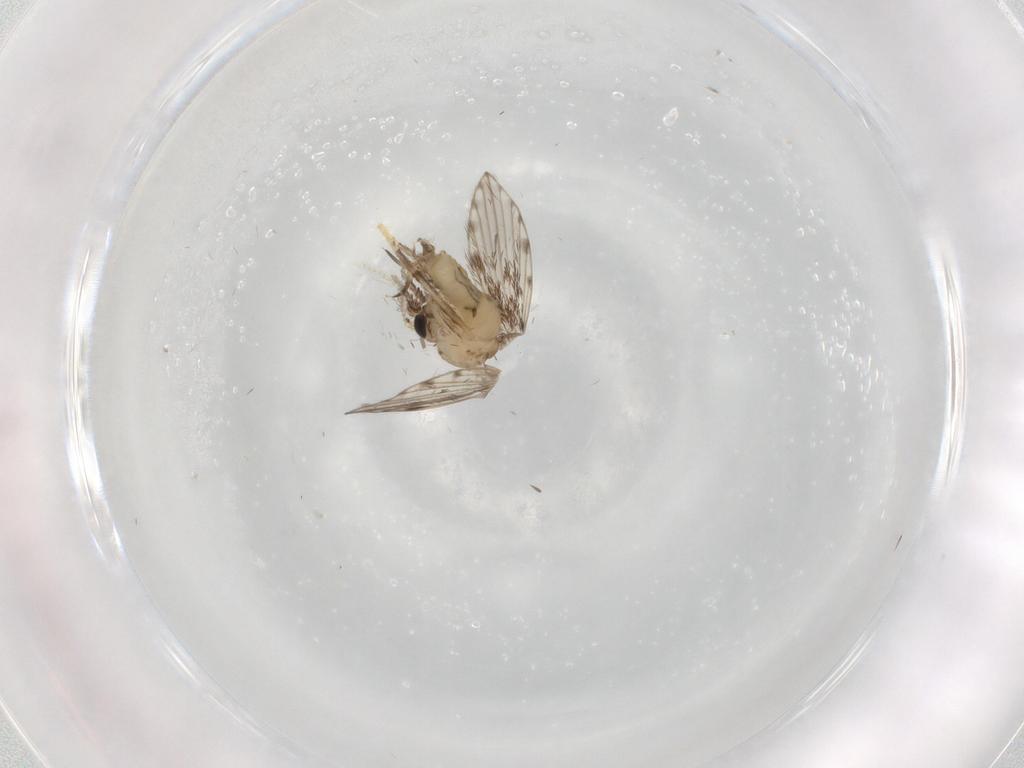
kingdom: Animalia
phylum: Arthropoda
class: Insecta
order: Diptera
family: Psychodidae
